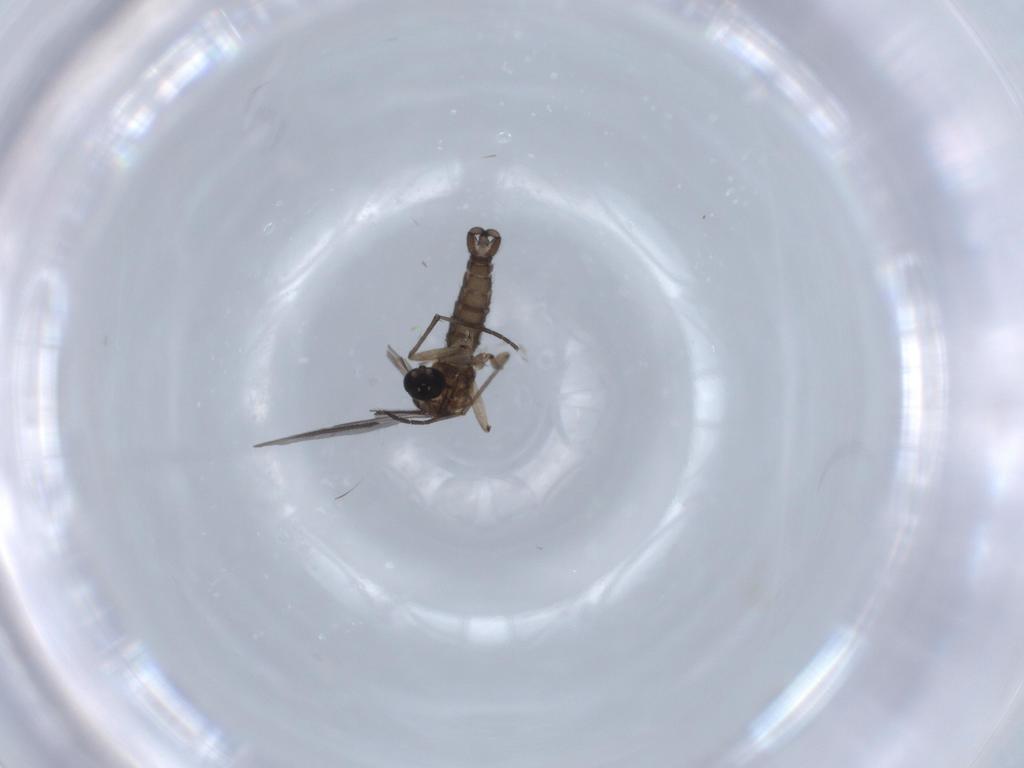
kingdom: Animalia
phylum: Arthropoda
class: Insecta
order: Diptera
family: Sciaridae
